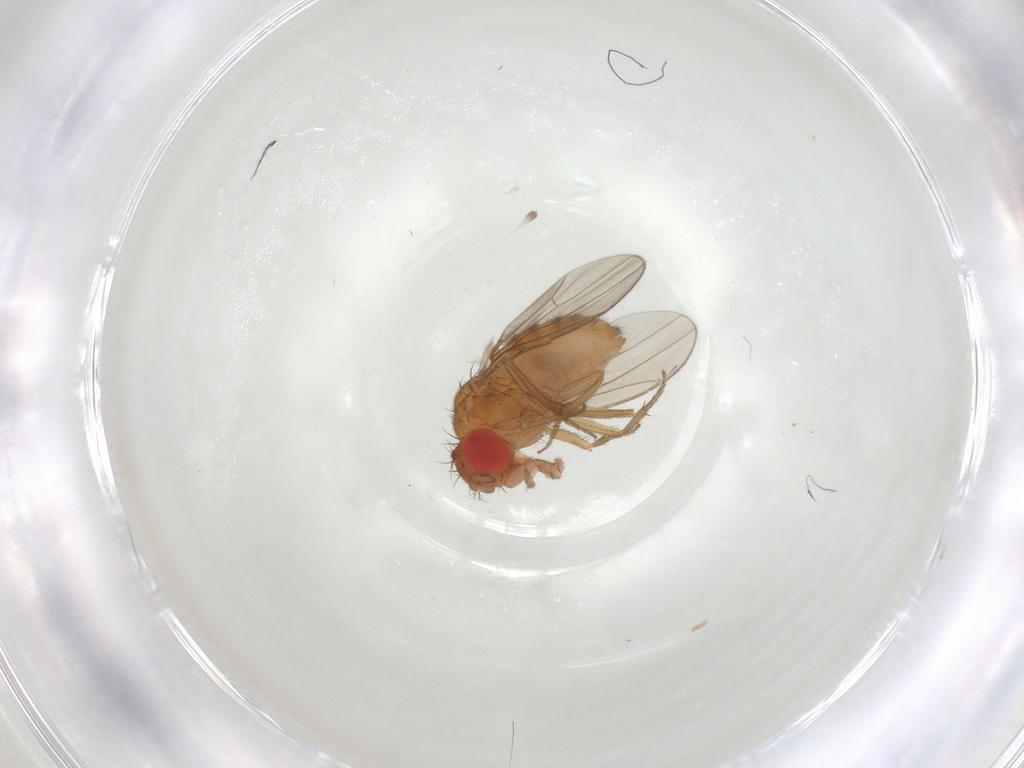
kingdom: Animalia
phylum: Arthropoda
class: Insecta
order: Diptera
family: Drosophilidae
